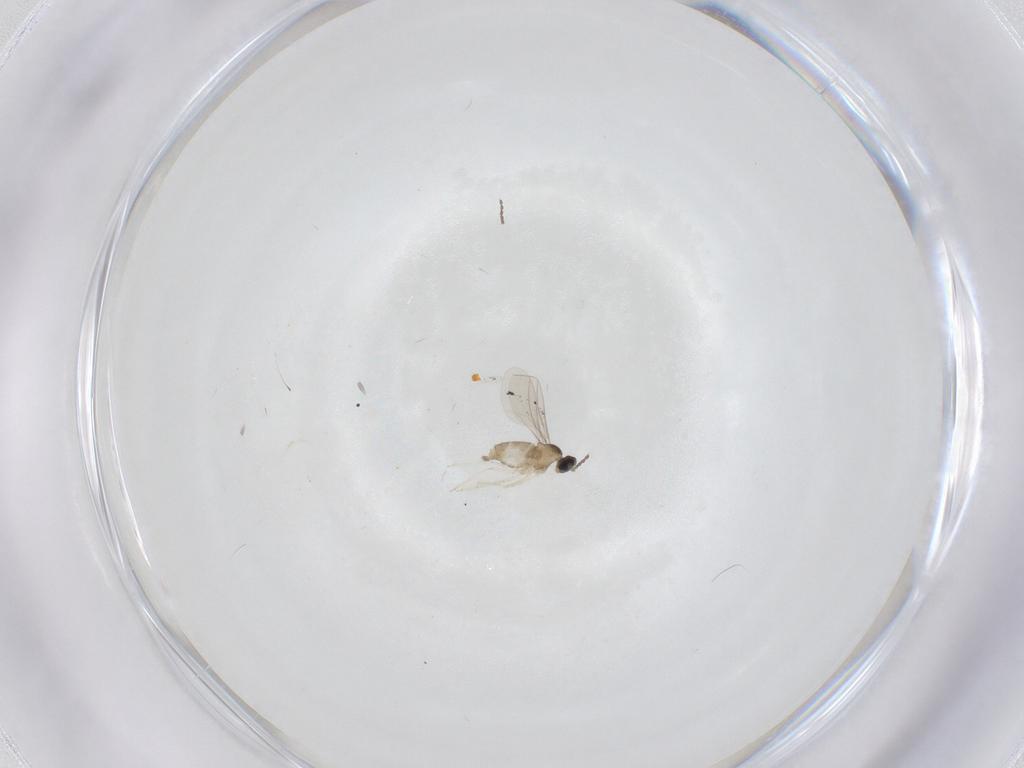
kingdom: Animalia
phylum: Arthropoda
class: Insecta
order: Diptera
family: Cecidomyiidae
